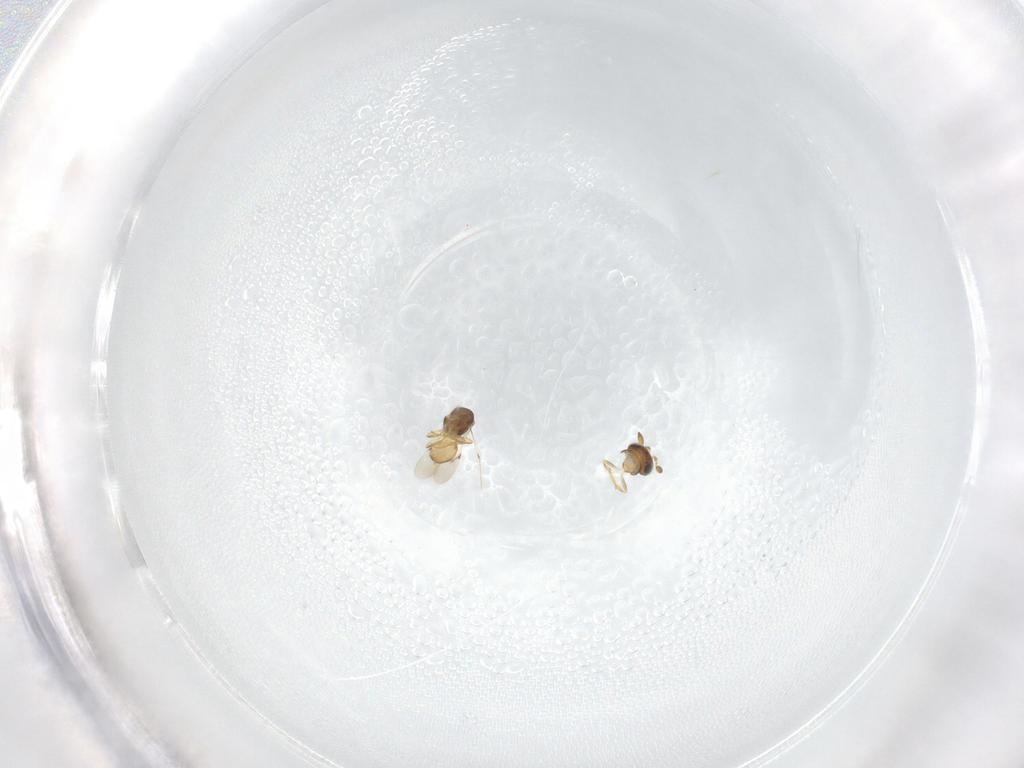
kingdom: Animalia
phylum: Arthropoda
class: Insecta
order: Hymenoptera
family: Scelionidae
